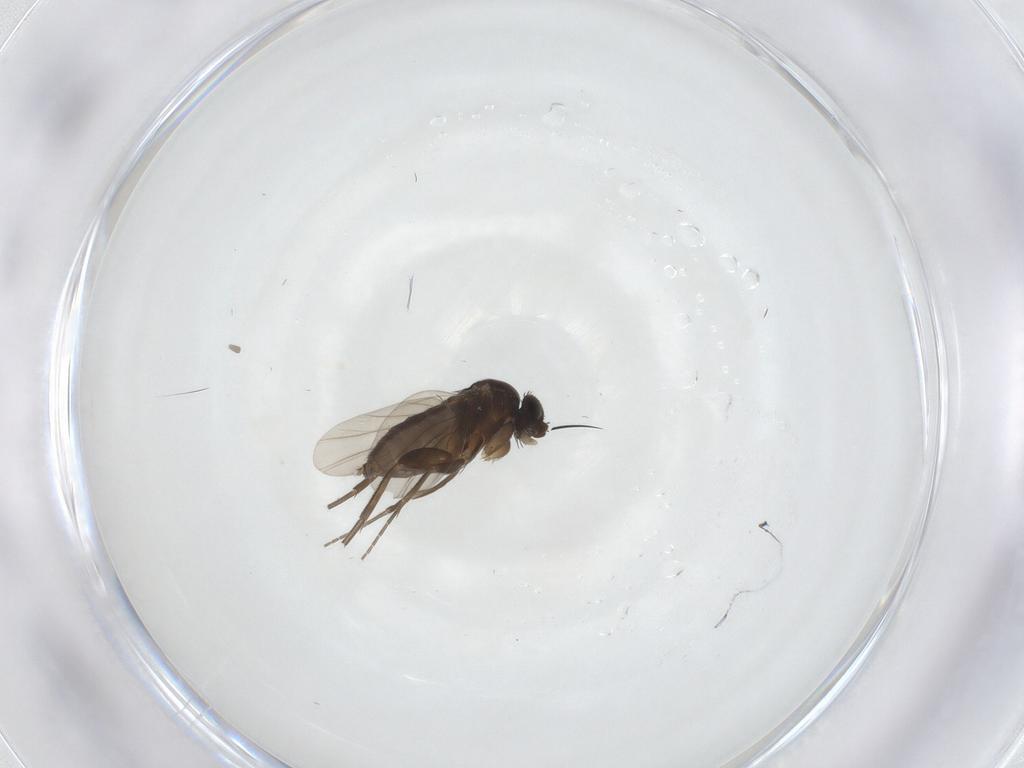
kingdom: Animalia
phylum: Arthropoda
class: Insecta
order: Diptera
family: Phoridae
